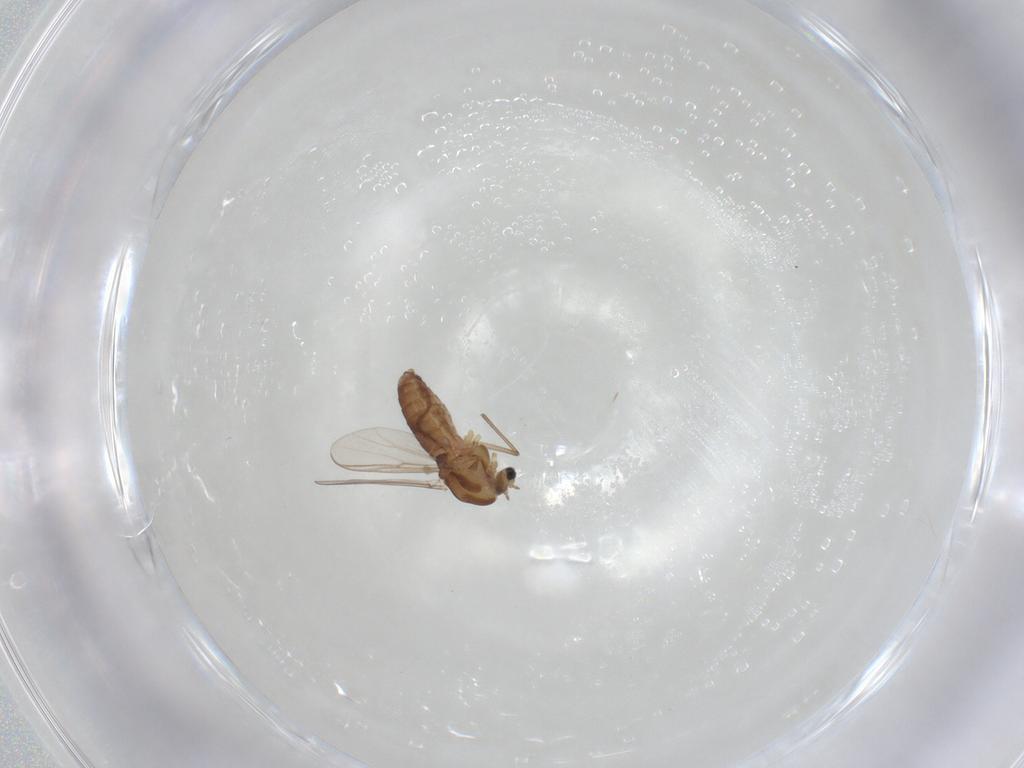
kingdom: Animalia
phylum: Arthropoda
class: Insecta
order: Diptera
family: Chironomidae
